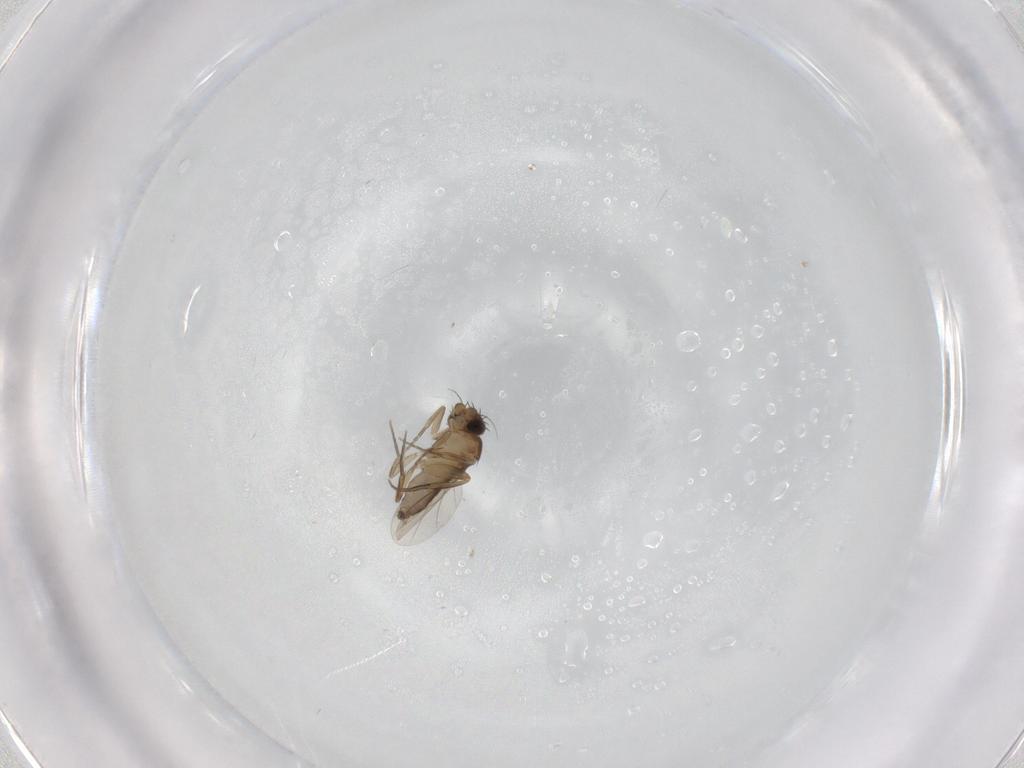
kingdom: Animalia
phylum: Arthropoda
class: Insecta
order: Diptera
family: Phoridae
